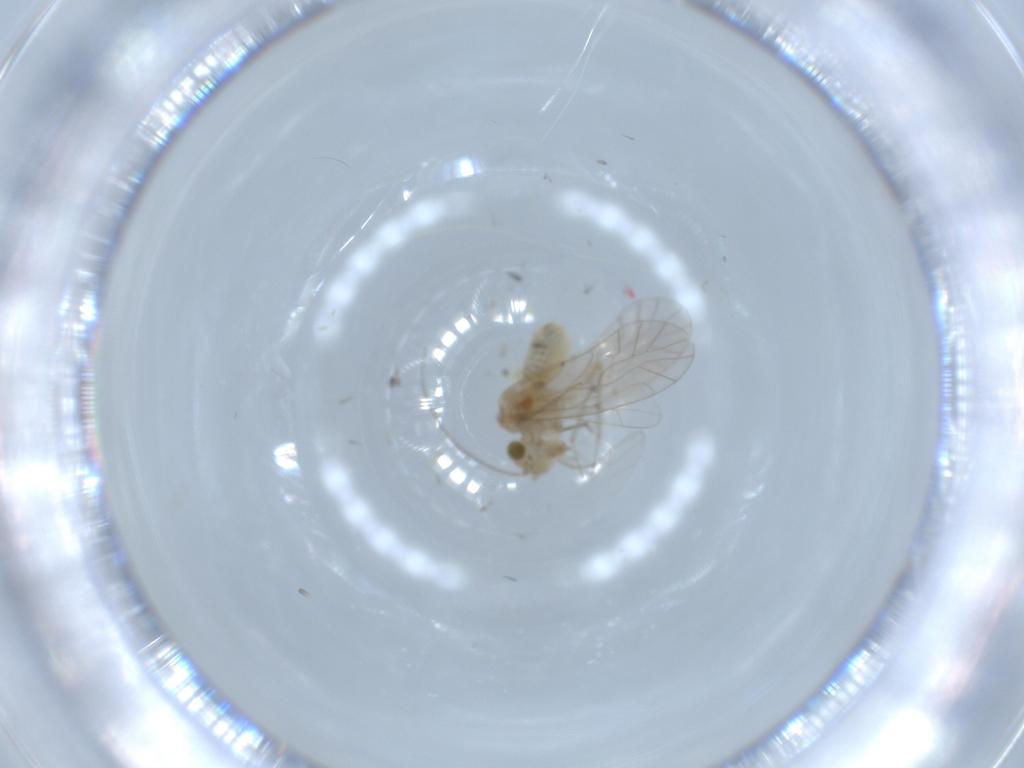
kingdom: Animalia
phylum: Arthropoda
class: Insecta
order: Psocodea
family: Lachesillidae
